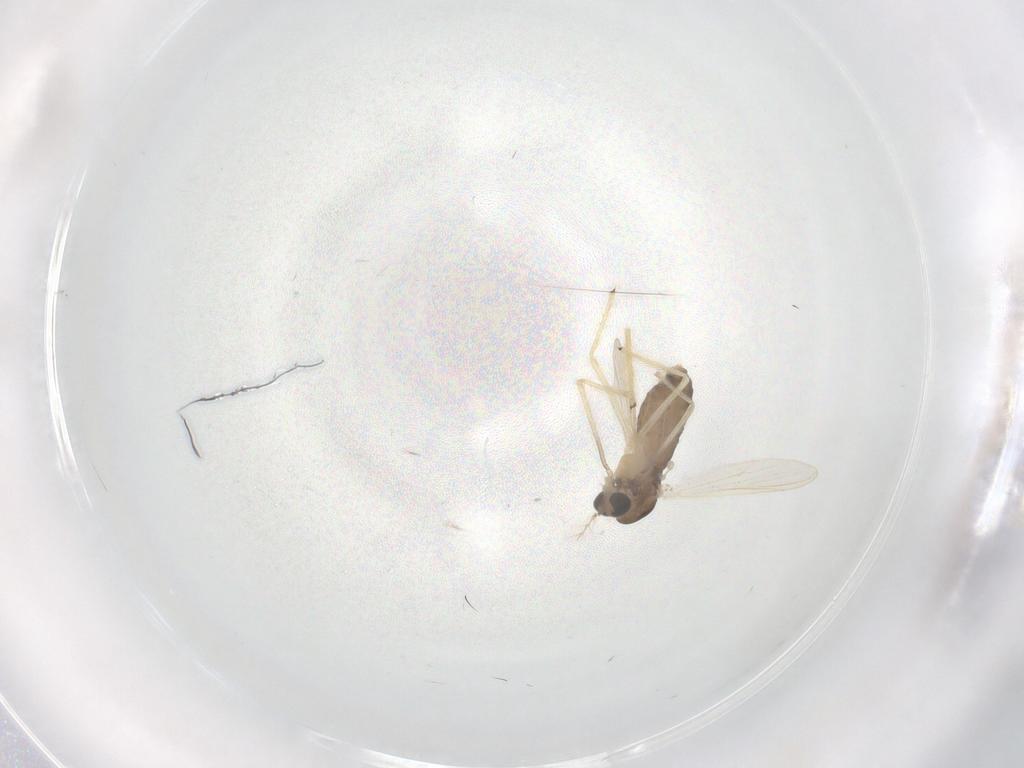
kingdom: Animalia
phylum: Arthropoda
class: Insecta
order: Diptera
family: Chironomidae
